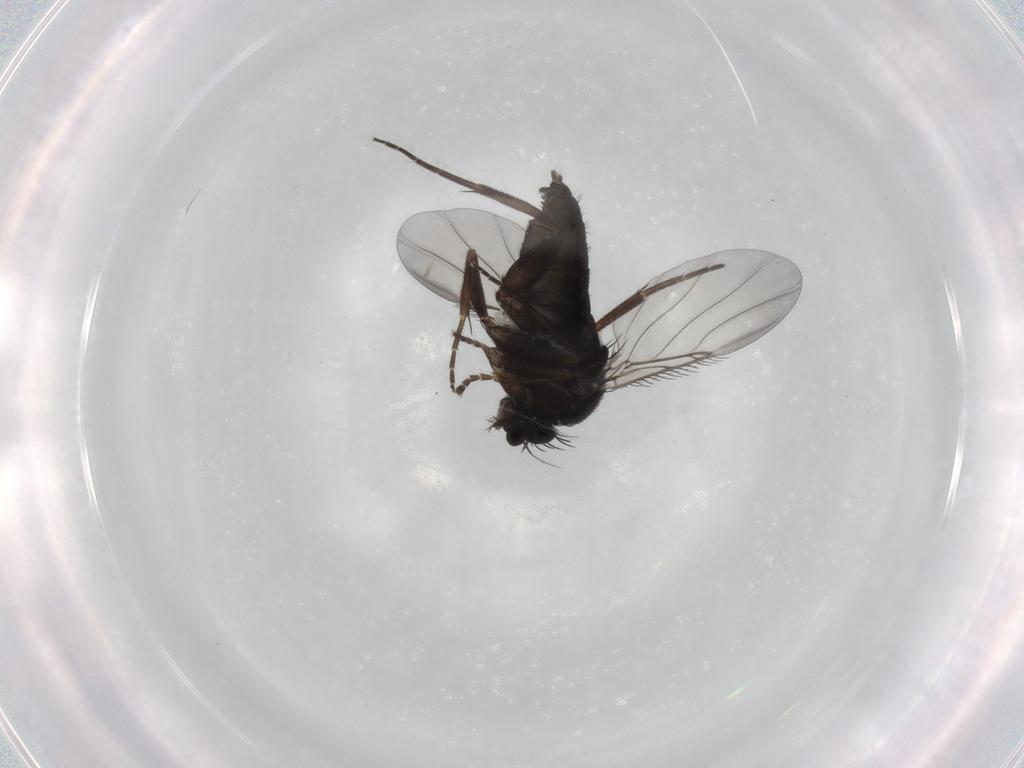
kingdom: Animalia
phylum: Arthropoda
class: Insecta
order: Diptera
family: Phoridae
